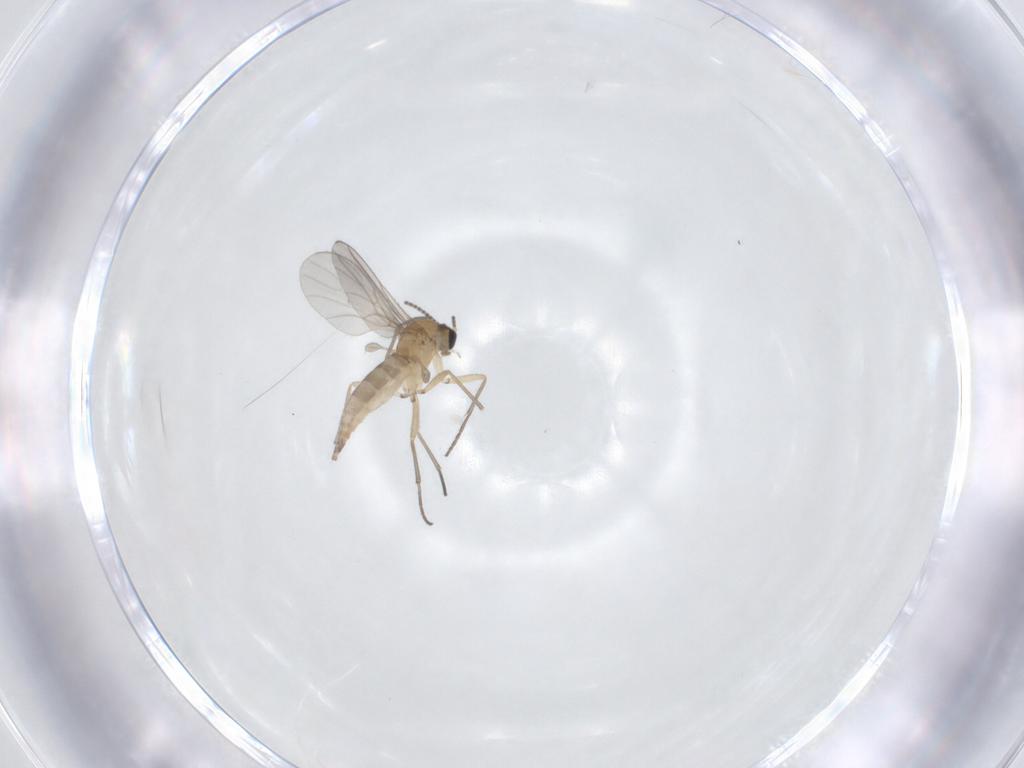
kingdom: Animalia
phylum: Arthropoda
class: Insecta
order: Diptera
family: Sciaridae
